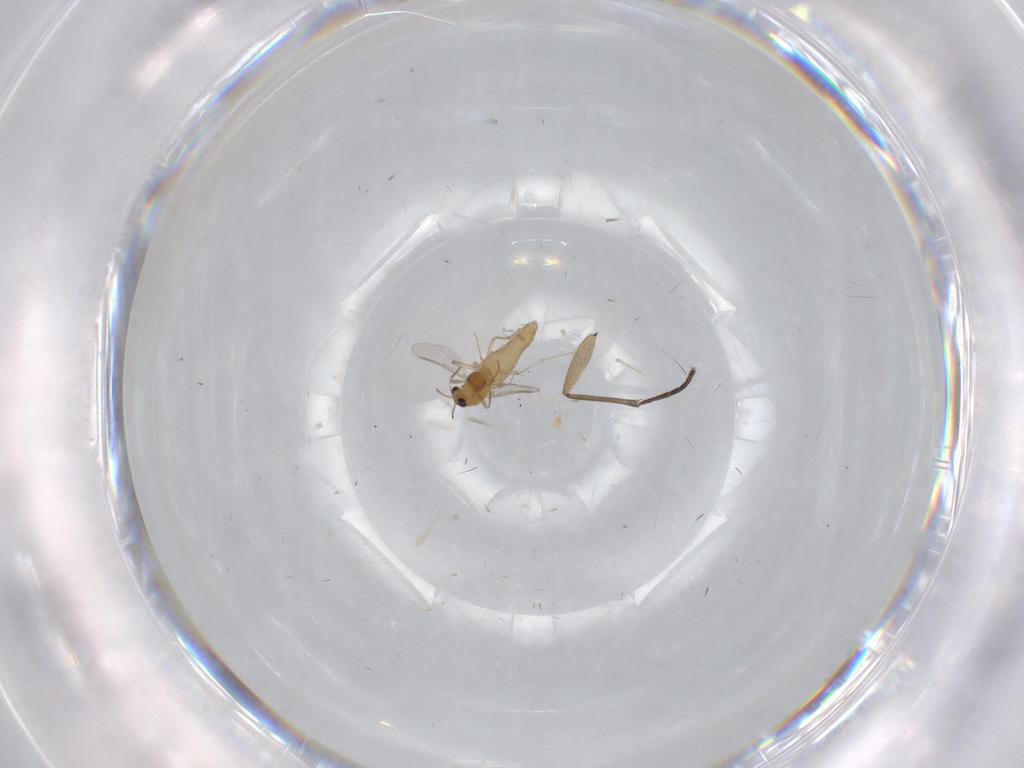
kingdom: Animalia
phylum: Arthropoda
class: Insecta
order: Diptera
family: Chironomidae
